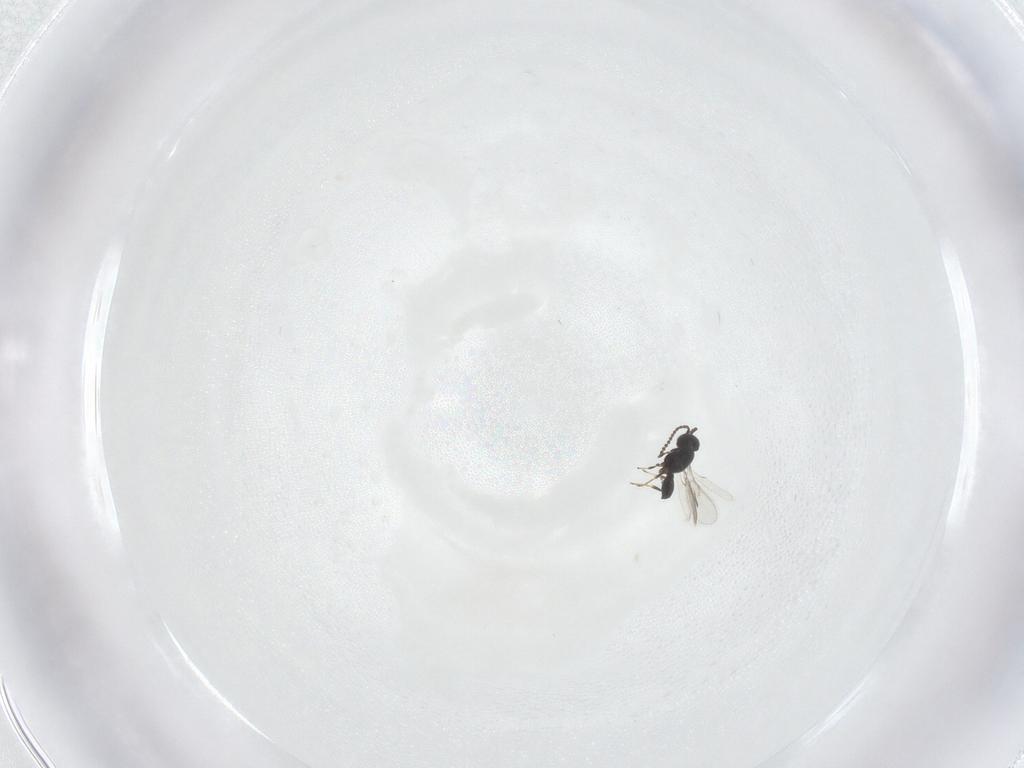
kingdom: Animalia
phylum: Arthropoda
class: Insecta
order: Hymenoptera
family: Scelionidae
